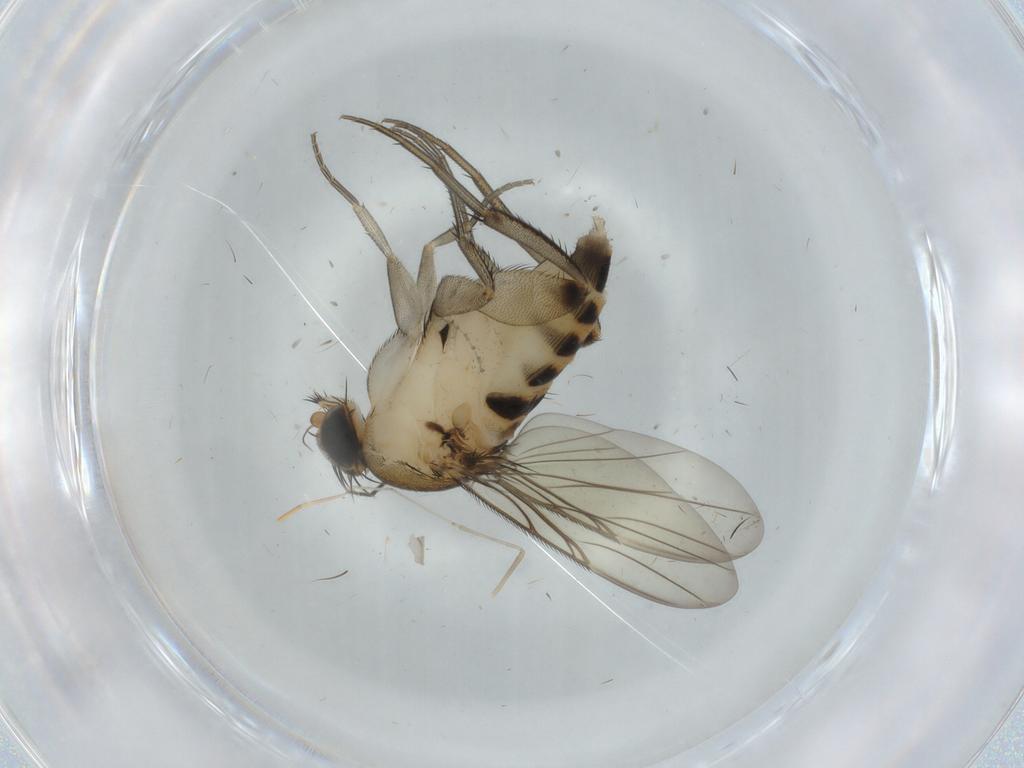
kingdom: Animalia
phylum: Arthropoda
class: Insecta
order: Diptera
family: Phoridae
